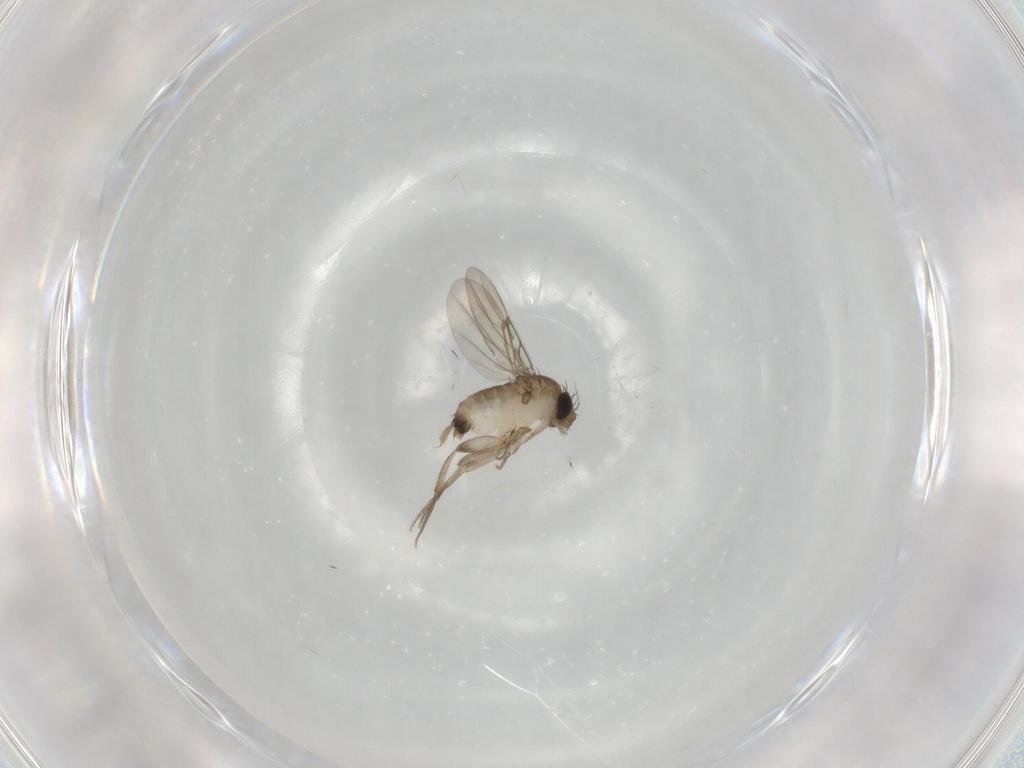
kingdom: Animalia
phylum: Arthropoda
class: Insecta
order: Diptera
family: Phoridae
